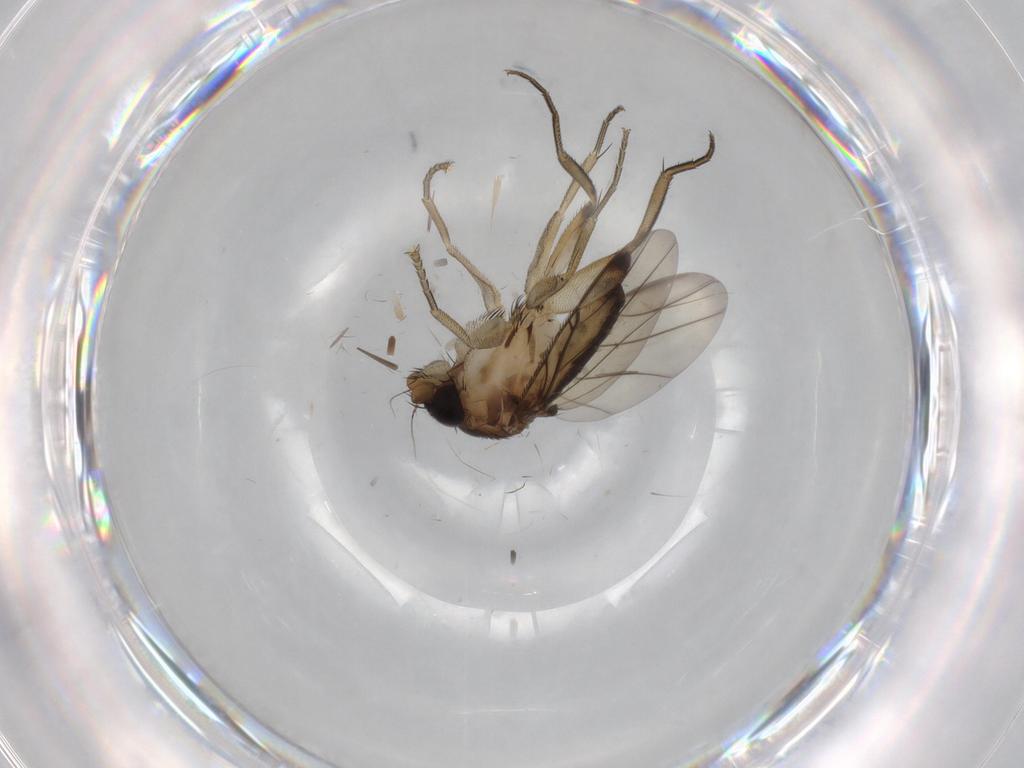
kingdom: Animalia
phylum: Arthropoda
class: Insecta
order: Diptera
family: Phoridae
